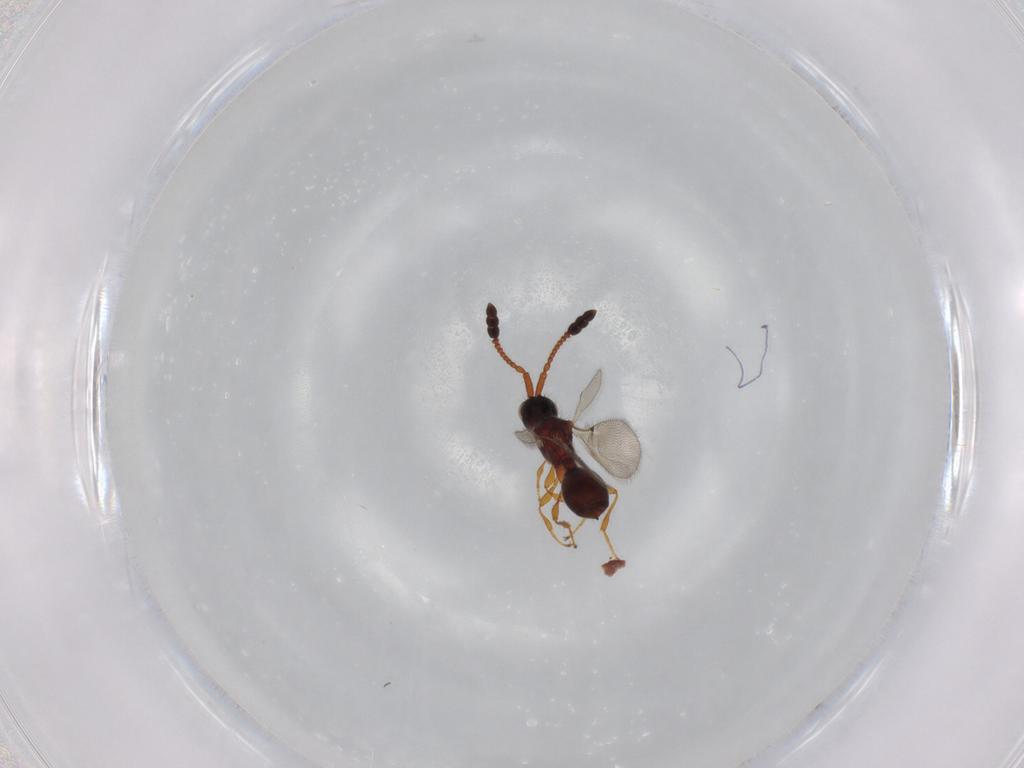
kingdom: Animalia
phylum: Arthropoda
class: Insecta
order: Hymenoptera
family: Diapriidae
